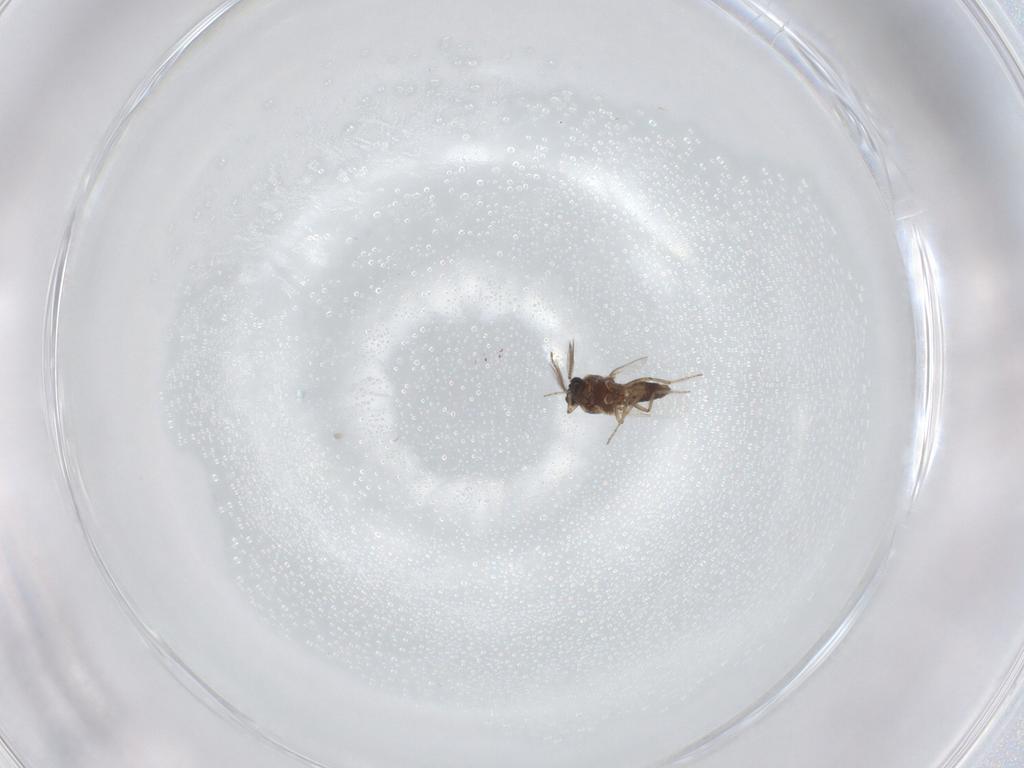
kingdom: Animalia
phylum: Arthropoda
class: Insecta
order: Diptera
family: Ceratopogonidae
